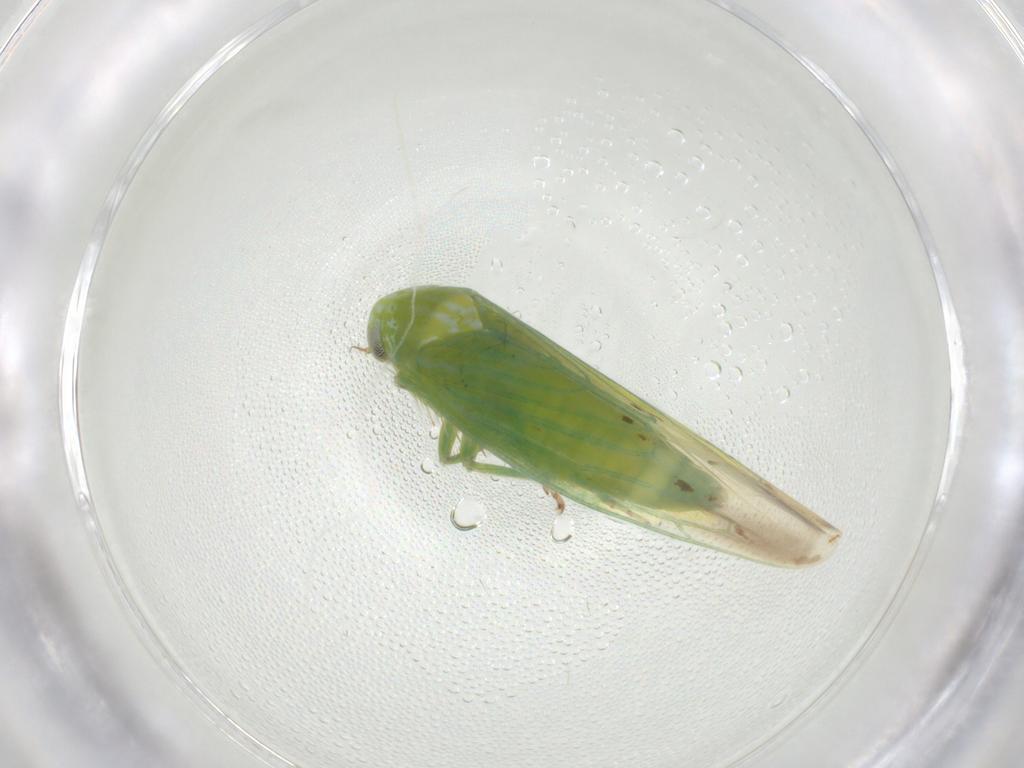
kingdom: Animalia
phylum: Arthropoda
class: Insecta
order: Hemiptera
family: Cicadellidae
